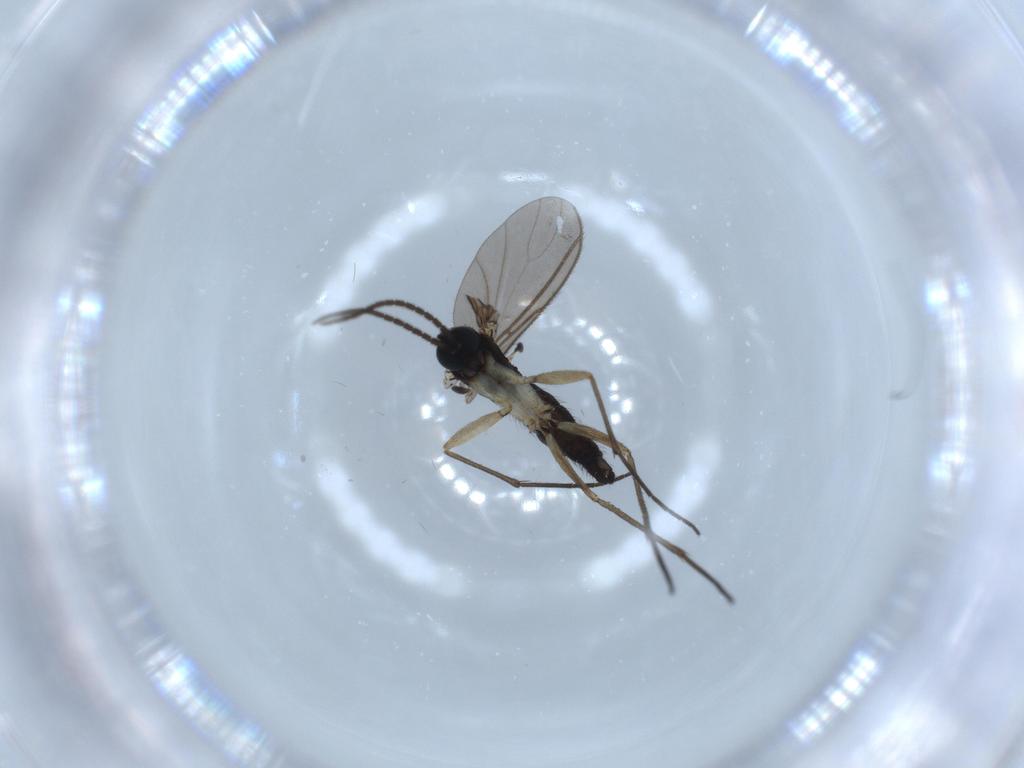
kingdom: Animalia
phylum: Arthropoda
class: Insecta
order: Diptera
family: Sciaridae
